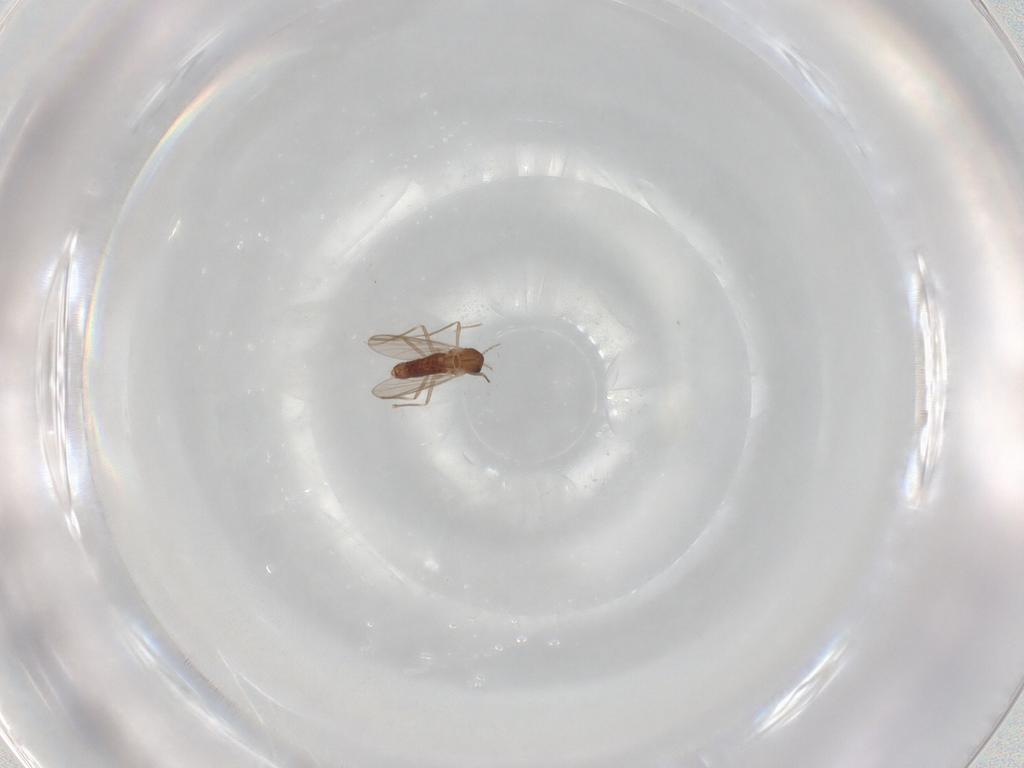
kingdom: Animalia
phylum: Arthropoda
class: Insecta
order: Diptera
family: Chironomidae
